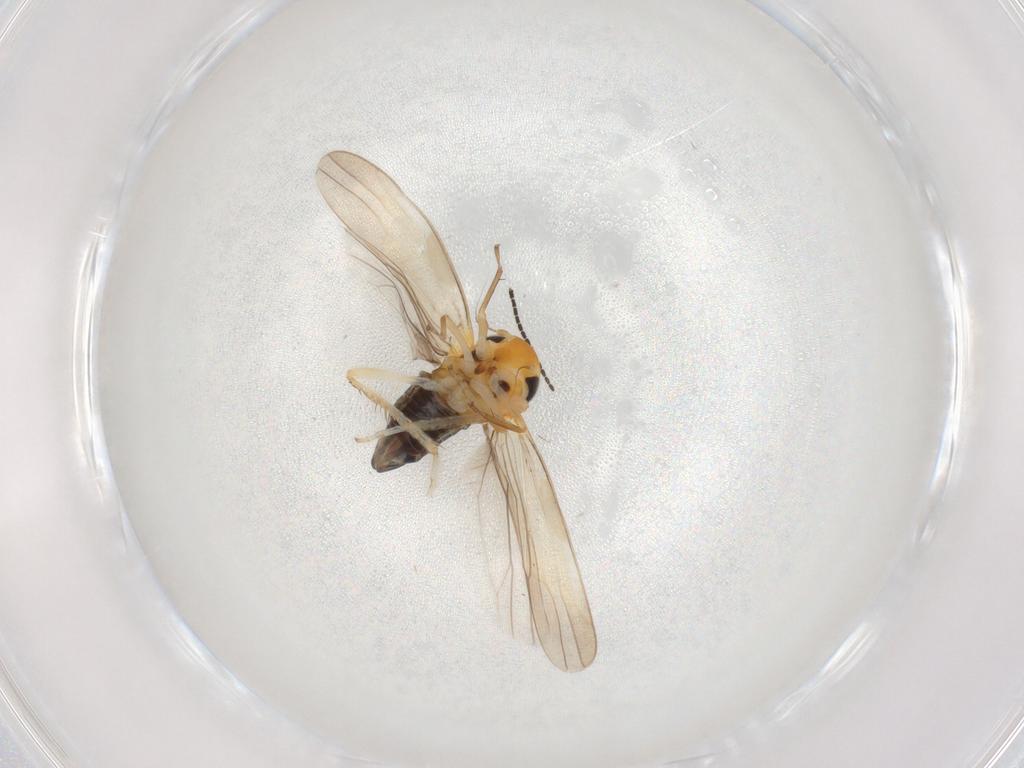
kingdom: Animalia
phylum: Arthropoda
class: Insecta
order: Hemiptera
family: Cicadellidae
